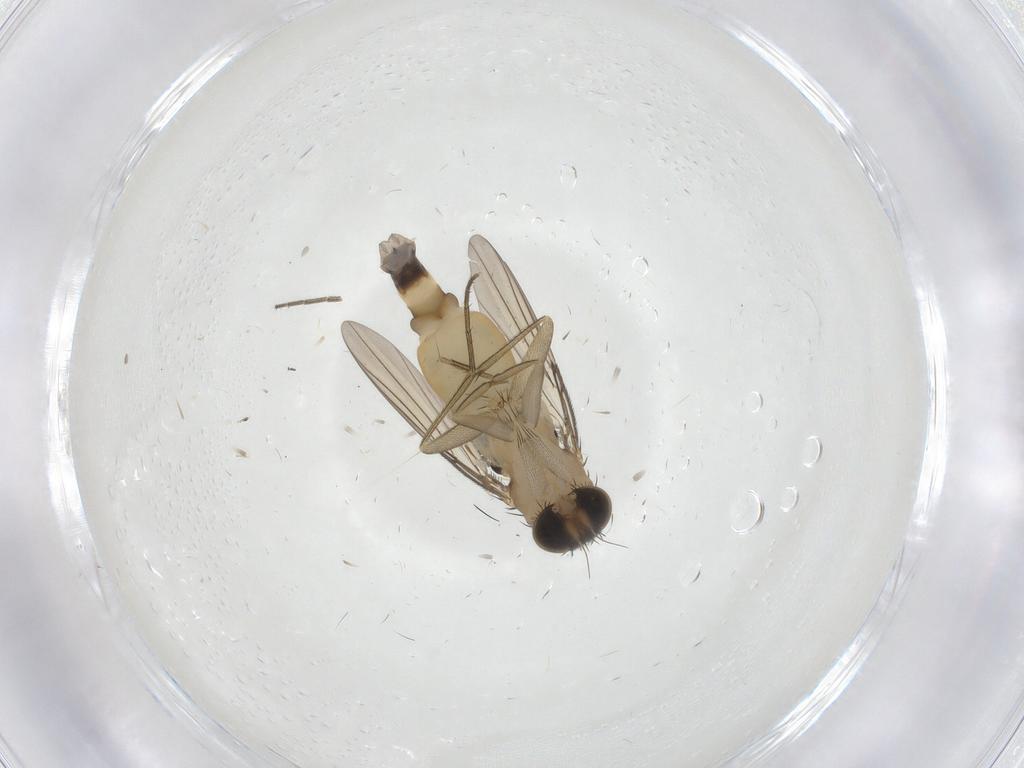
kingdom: Animalia
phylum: Arthropoda
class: Insecta
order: Diptera
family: Phoridae
